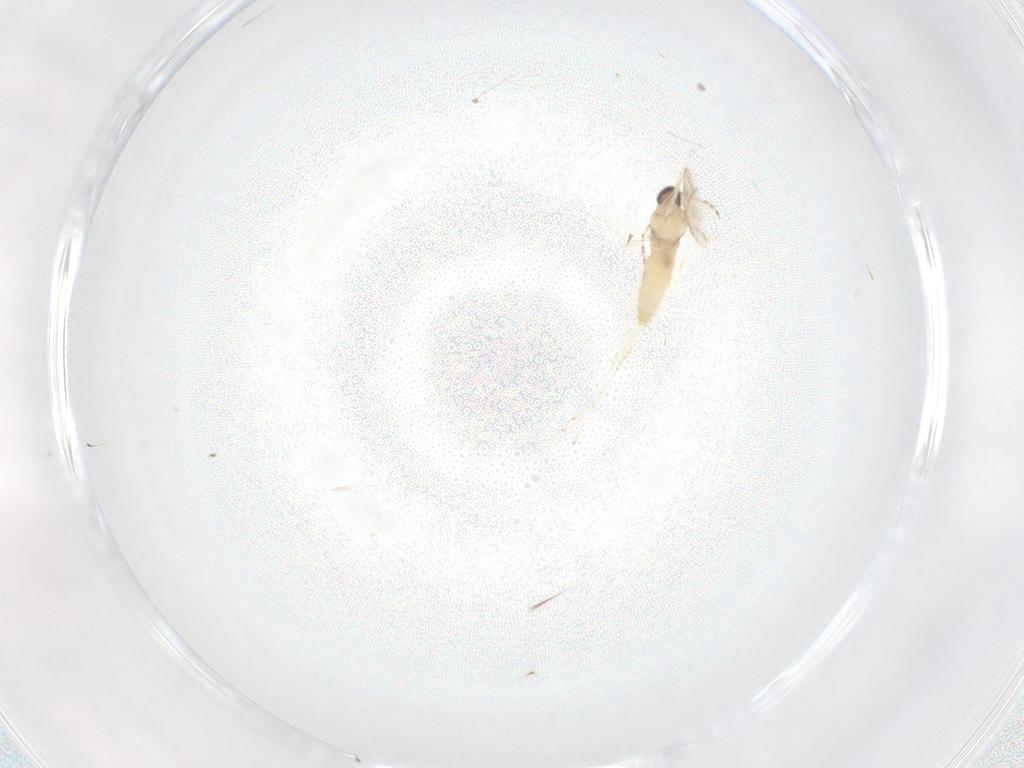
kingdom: Animalia
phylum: Arthropoda
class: Insecta
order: Diptera
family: Cecidomyiidae
